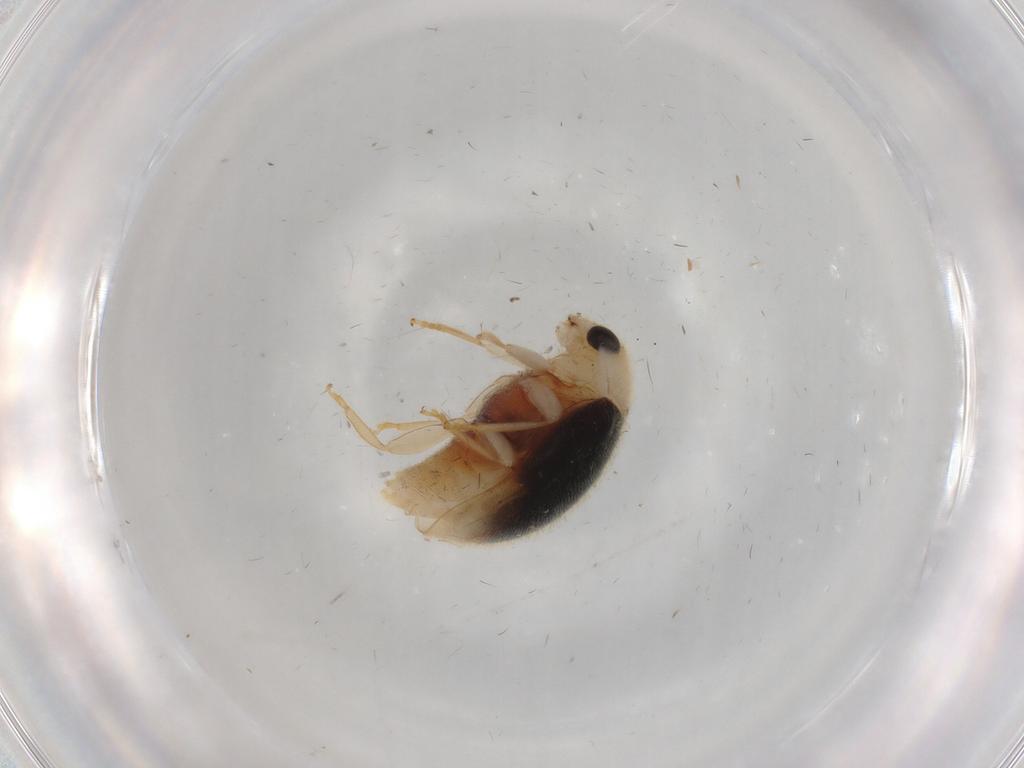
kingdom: Animalia
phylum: Arthropoda
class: Insecta
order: Coleoptera
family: Coccinellidae
